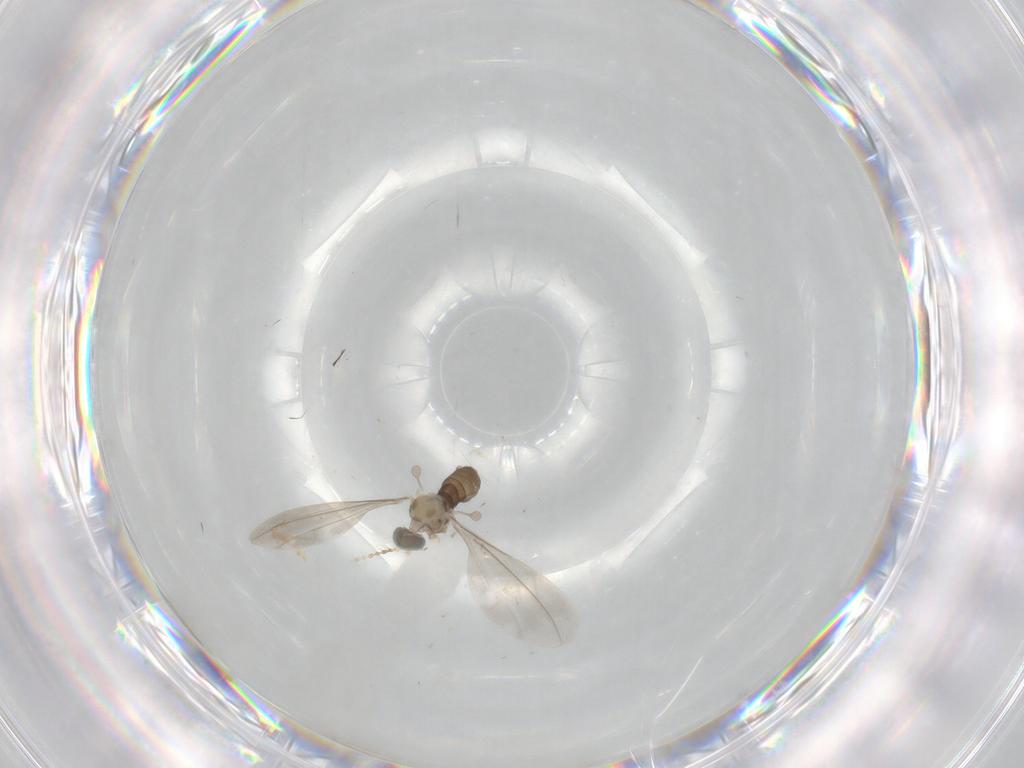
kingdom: Animalia
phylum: Arthropoda
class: Insecta
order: Diptera
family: Cecidomyiidae
